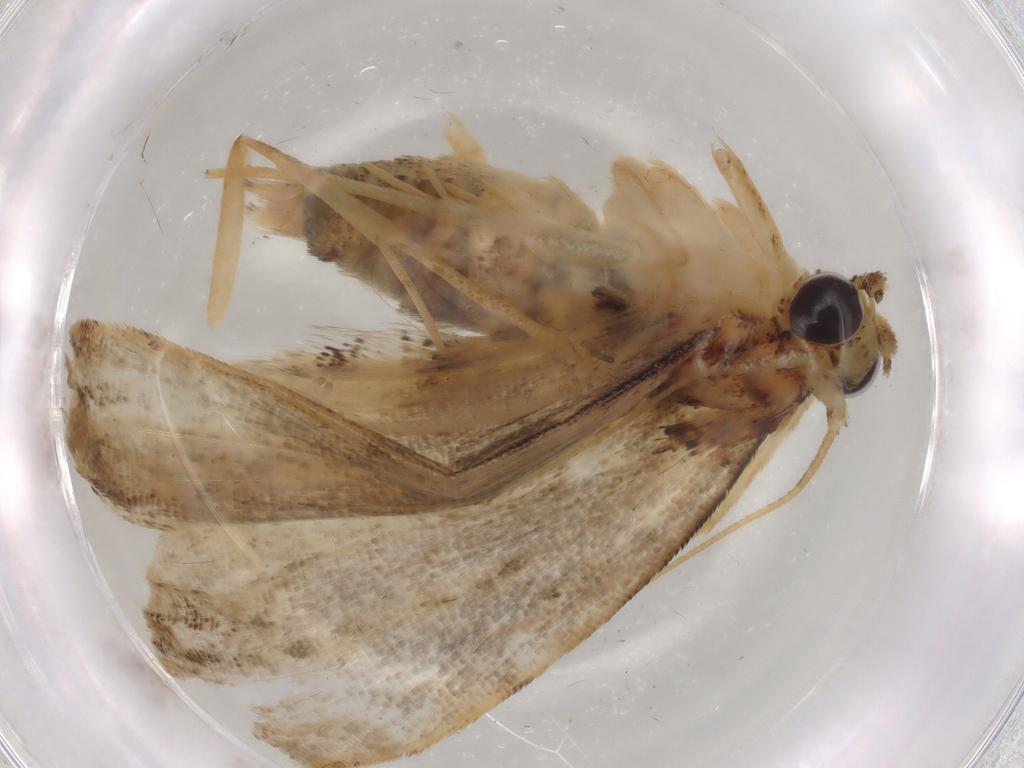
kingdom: Animalia
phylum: Arthropoda
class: Insecta
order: Lepidoptera
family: Erebidae
